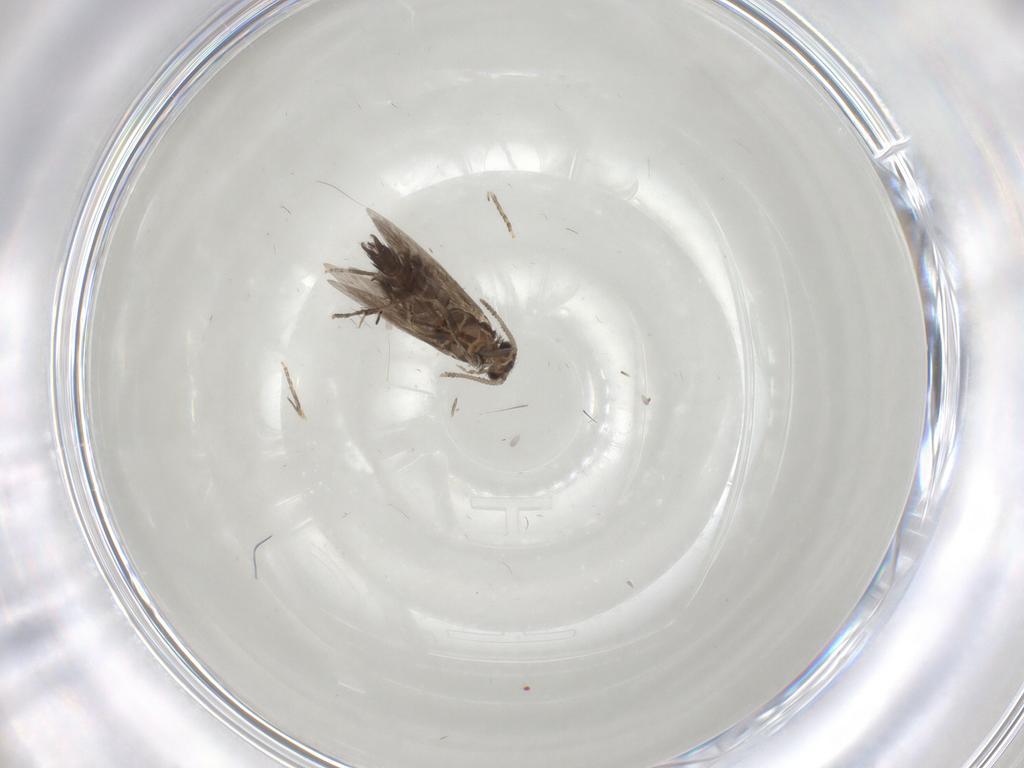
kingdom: Animalia
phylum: Arthropoda
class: Insecta
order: Trichoptera
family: Hydroptilidae
